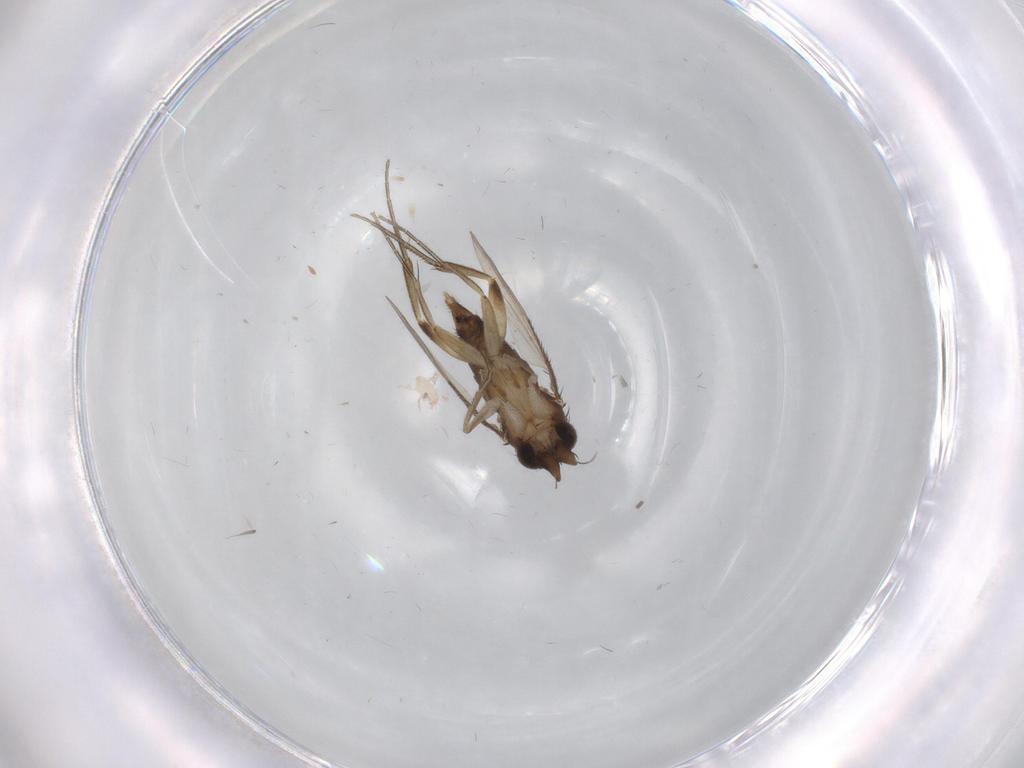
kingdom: Animalia
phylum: Arthropoda
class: Insecta
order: Diptera
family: Phoridae
